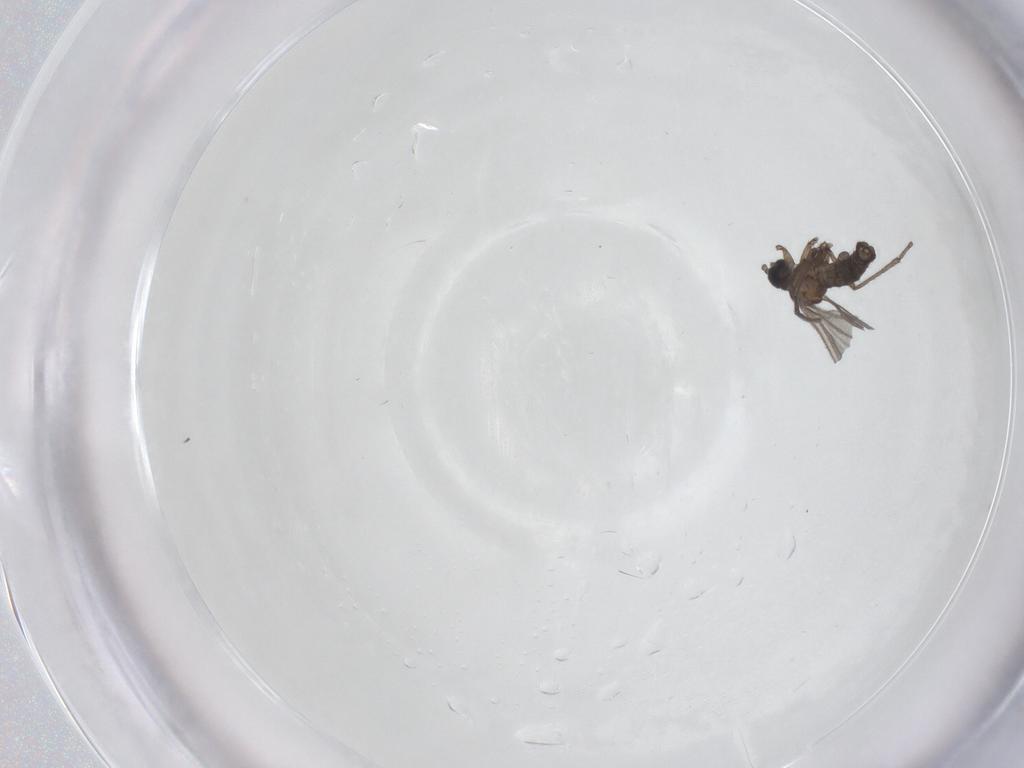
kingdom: Animalia
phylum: Arthropoda
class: Insecta
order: Diptera
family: Sciaridae
